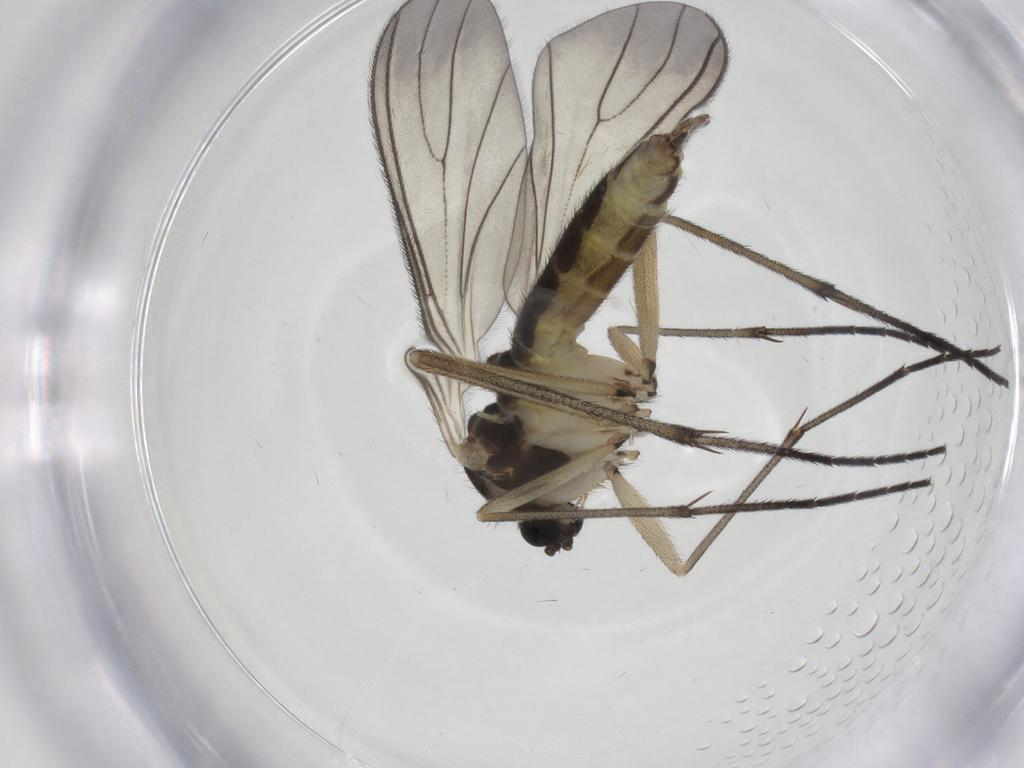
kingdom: Animalia
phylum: Arthropoda
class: Insecta
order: Diptera
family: Sciaridae
